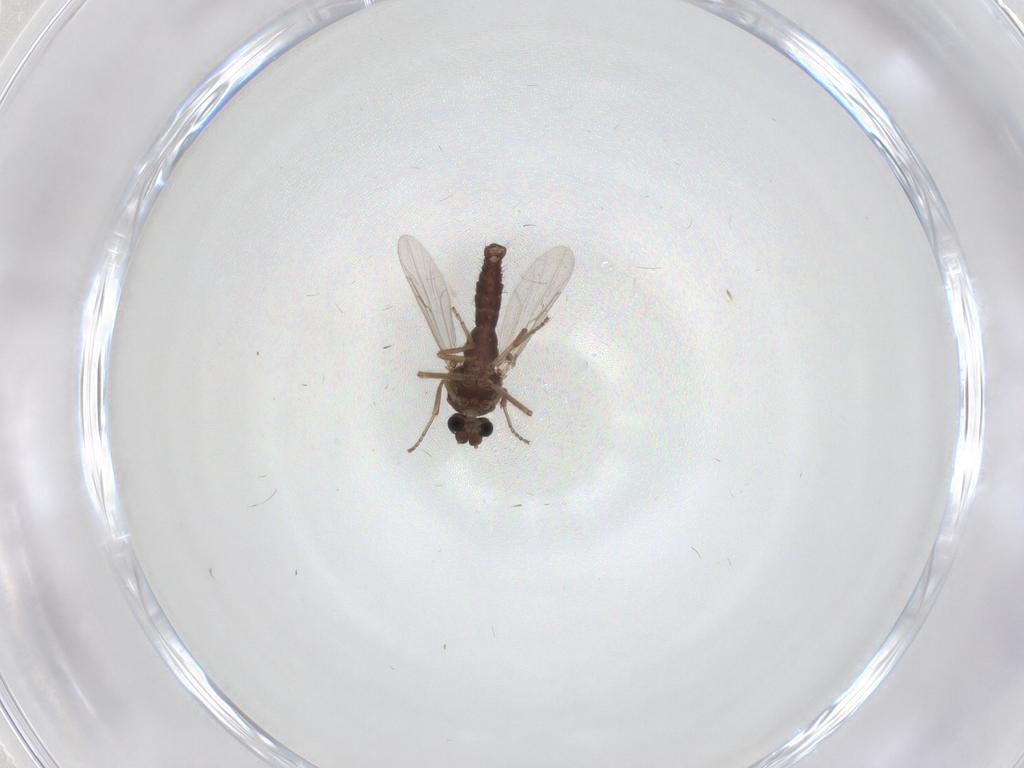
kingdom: Animalia
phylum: Arthropoda
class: Insecta
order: Diptera
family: Ceratopogonidae
